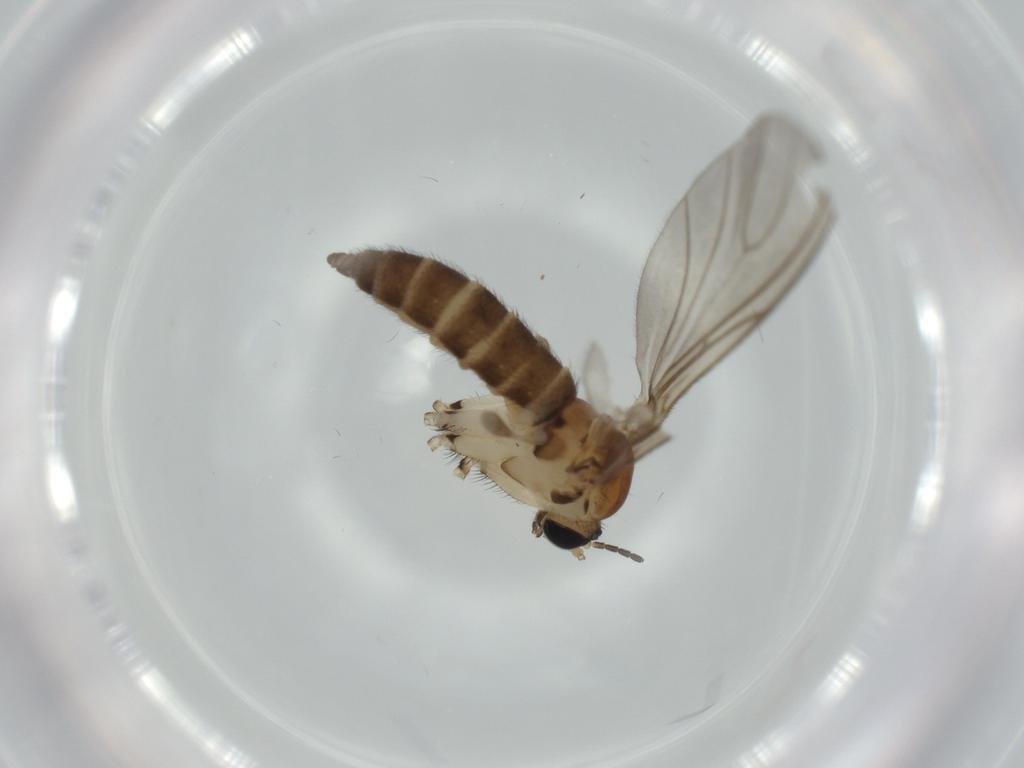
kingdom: Animalia
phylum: Arthropoda
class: Insecta
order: Diptera
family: Sciaridae
